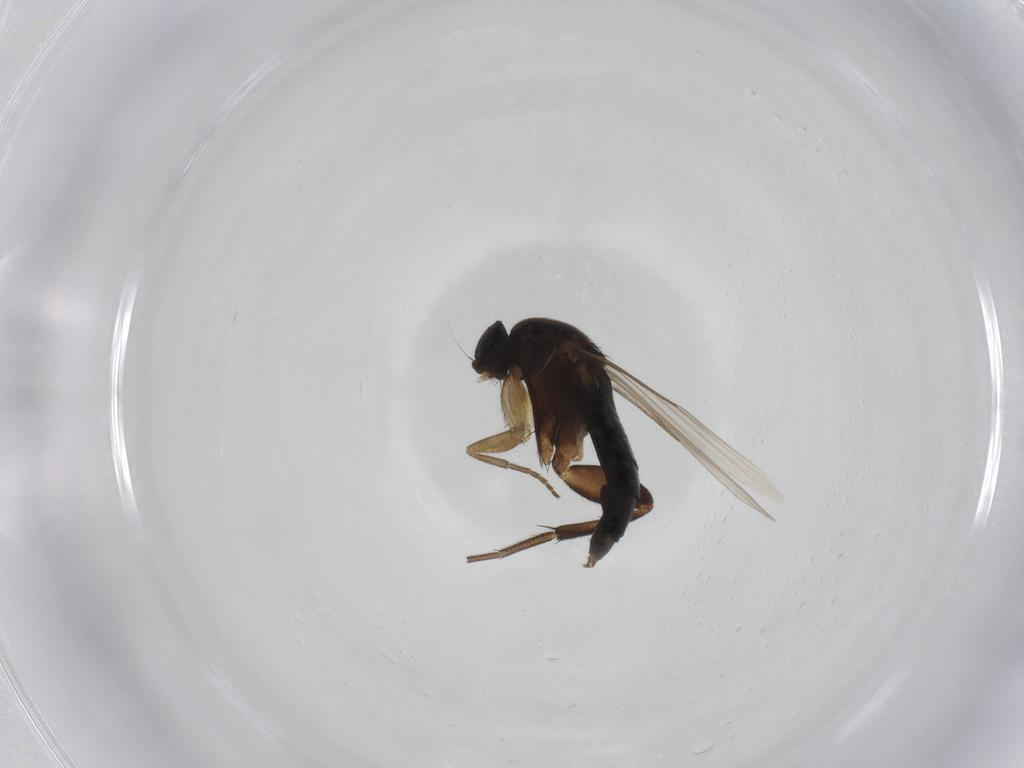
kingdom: Animalia
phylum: Arthropoda
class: Insecta
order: Diptera
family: Phoridae
